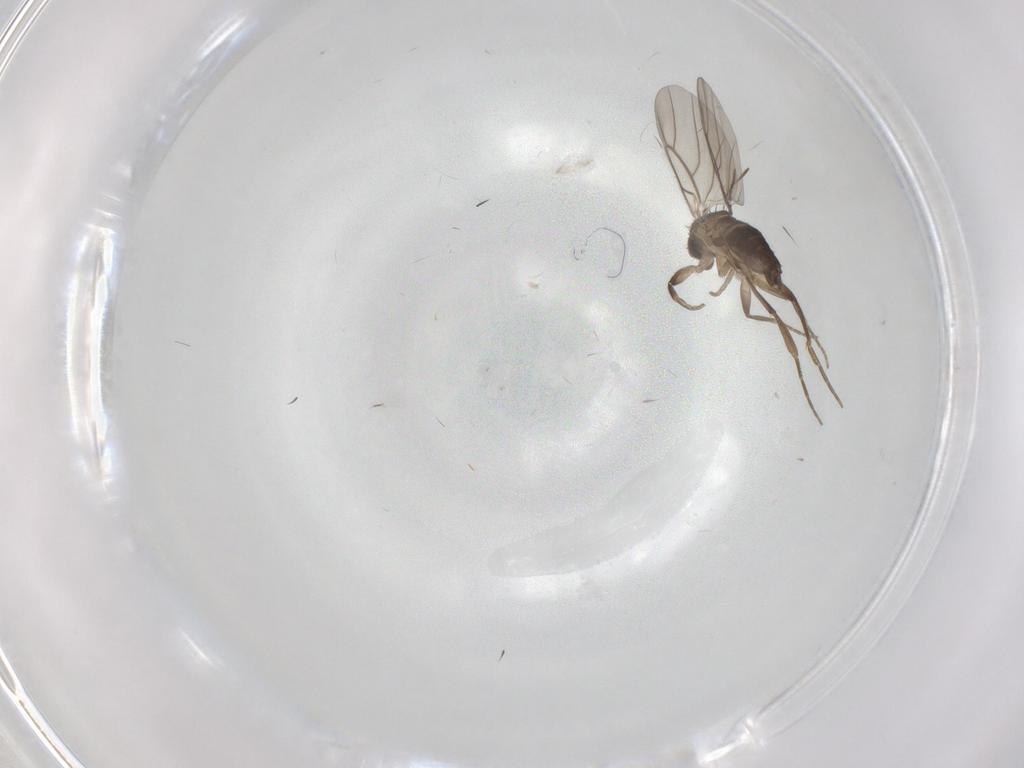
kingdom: Animalia
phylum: Arthropoda
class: Insecta
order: Diptera
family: Phoridae
